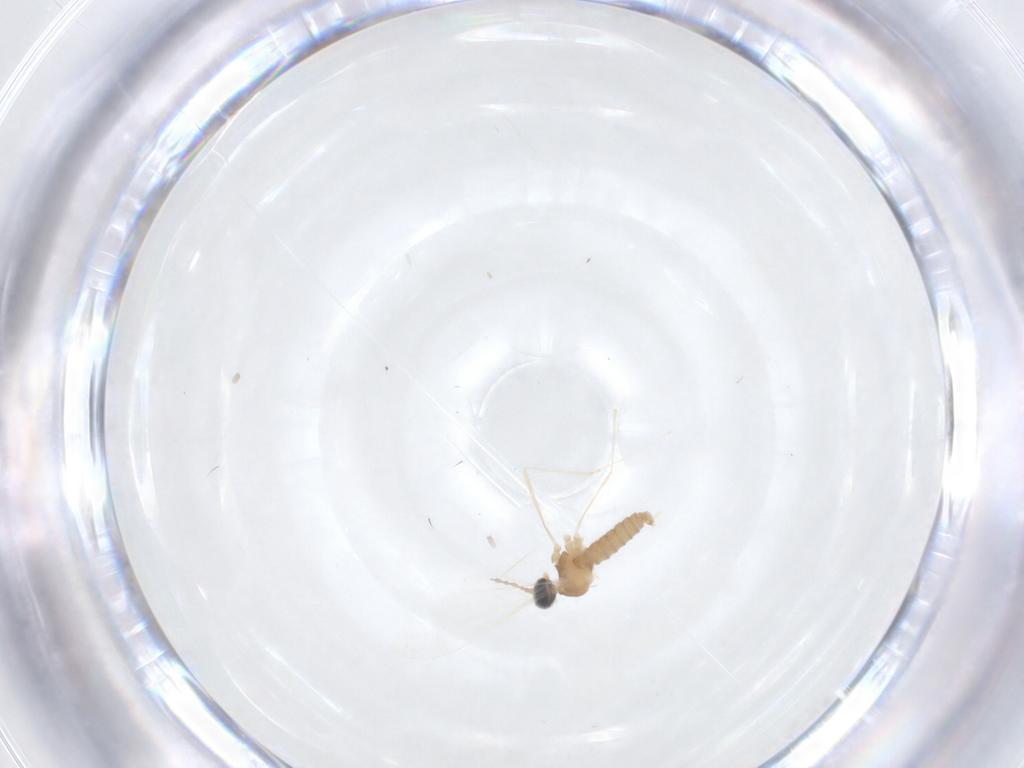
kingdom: Animalia
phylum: Arthropoda
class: Insecta
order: Diptera
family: Cecidomyiidae
